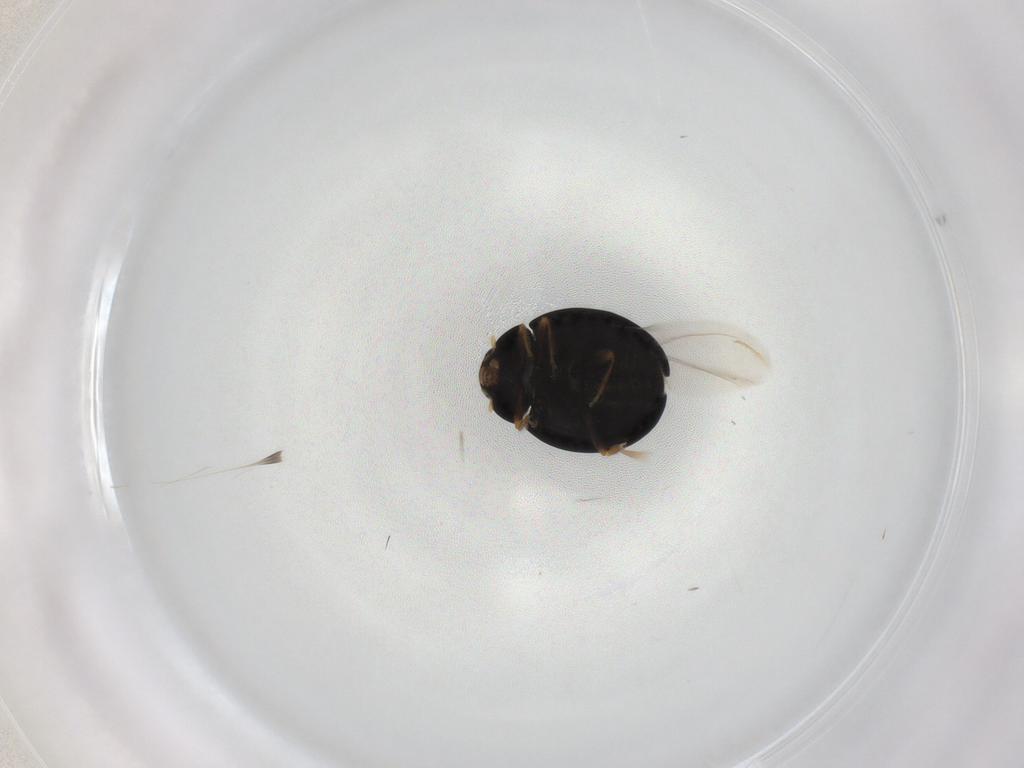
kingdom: Animalia
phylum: Arthropoda
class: Insecta
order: Coleoptera
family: Coccinellidae
